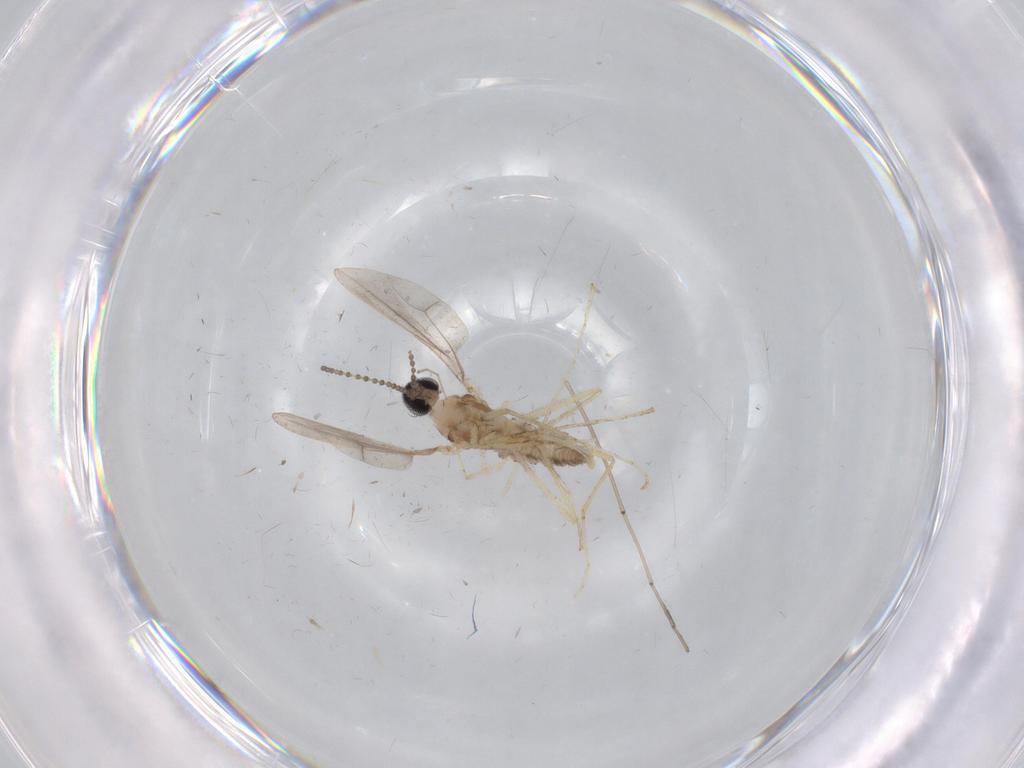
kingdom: Animalia
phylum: Arthropoda
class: Insecta
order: Diptera
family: Cecidomyiidae
